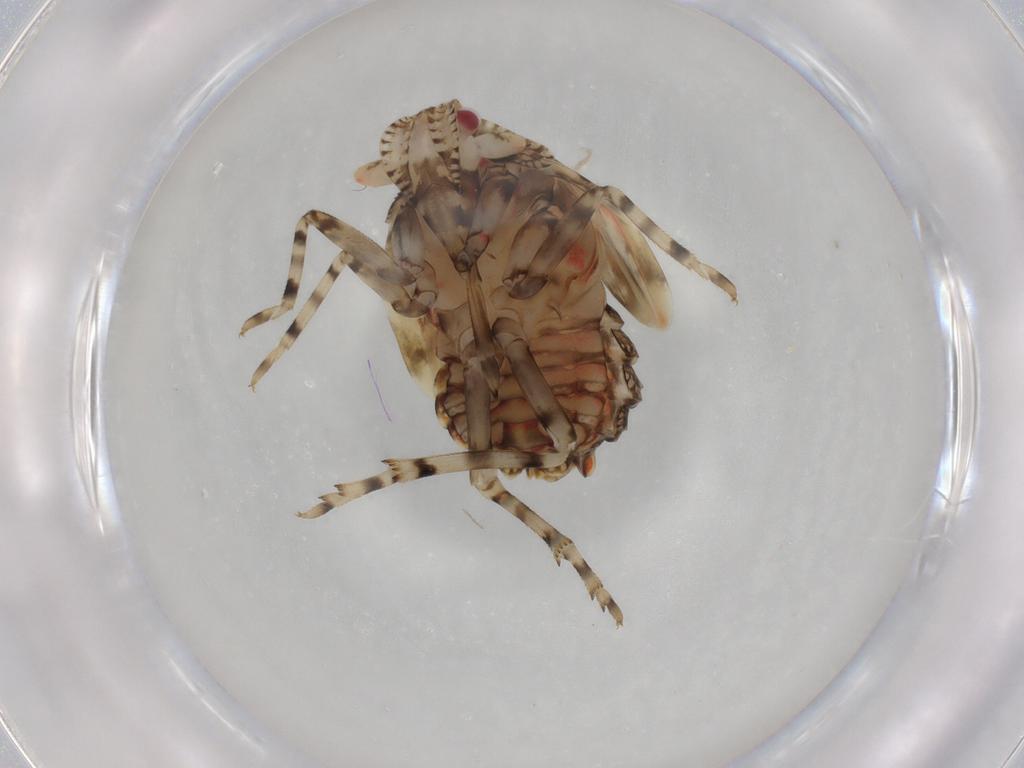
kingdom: Animalia
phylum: Arthropoda
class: Insecta
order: Hemiptera
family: Derbidae
